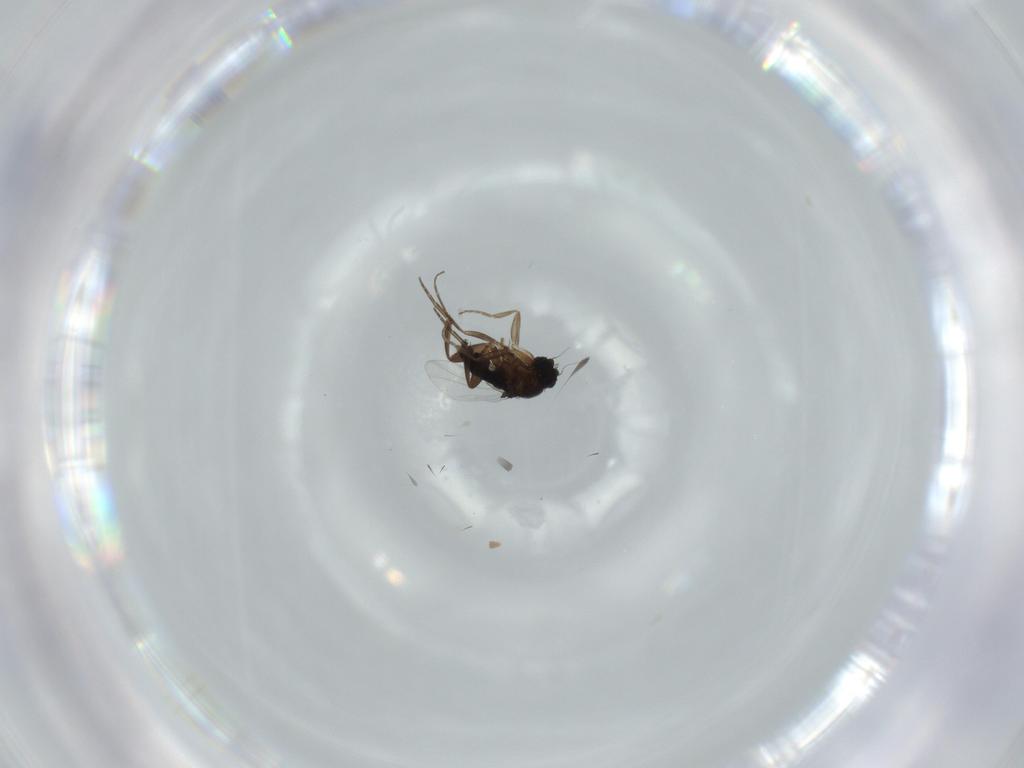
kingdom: Animalia
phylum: Arthropoda
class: Insecta
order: Diptera
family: Phoridae
